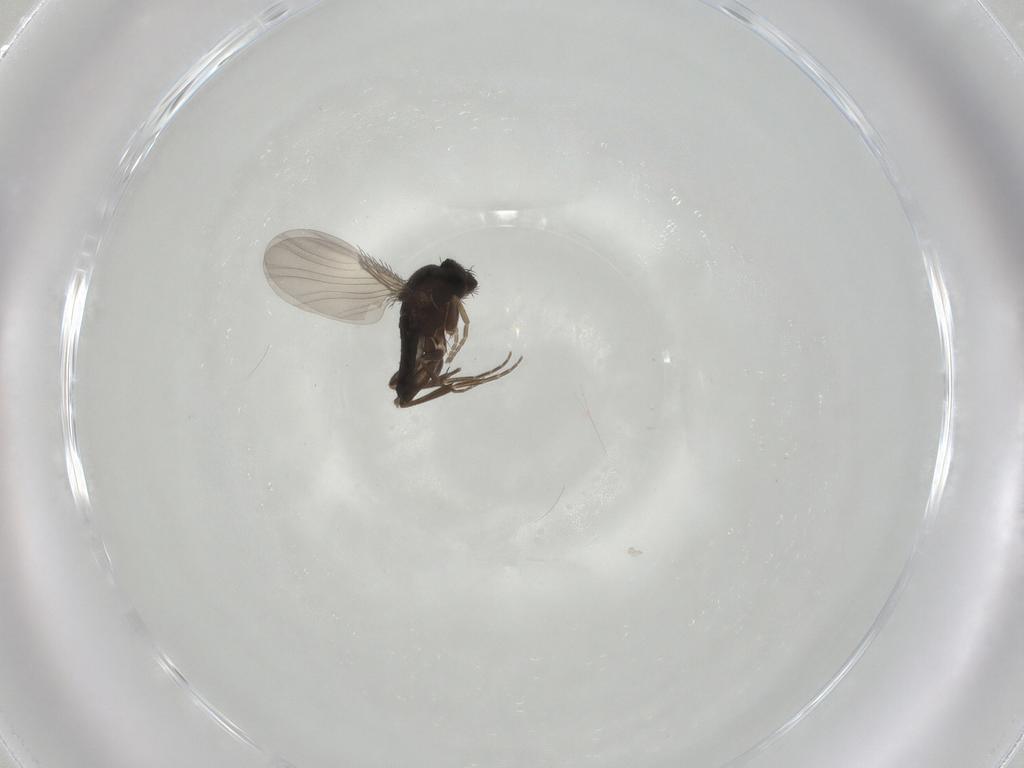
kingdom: Animalia
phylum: Arthropoda
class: Insecta
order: Diptera
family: Phoridae
